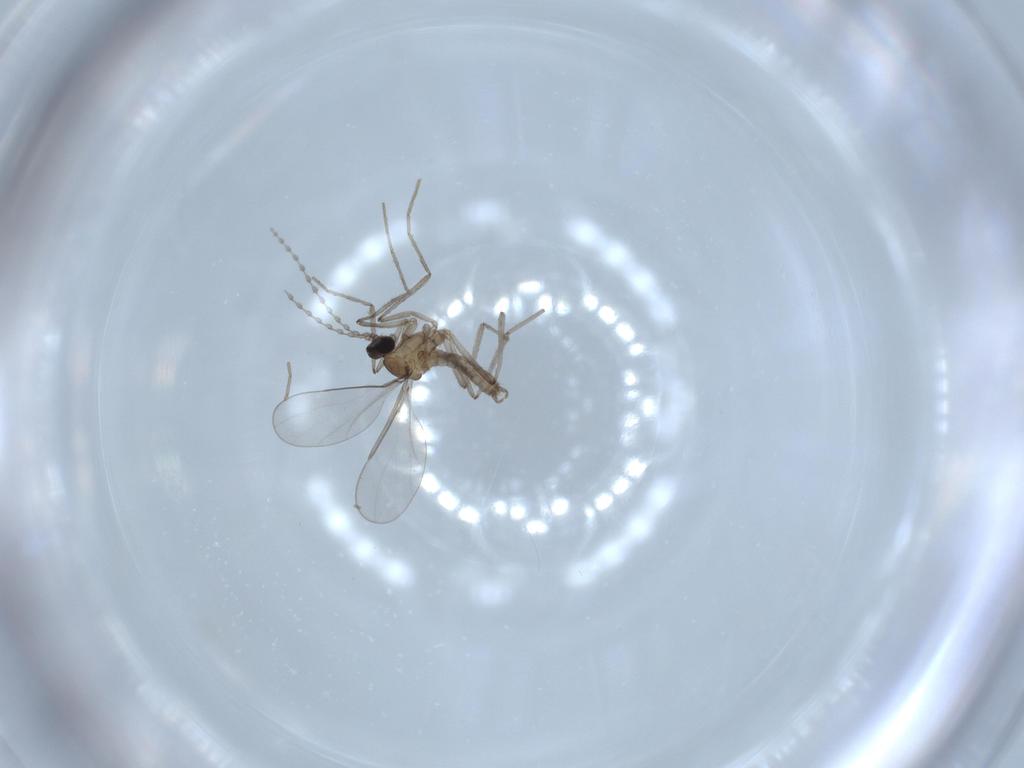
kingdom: Animalia
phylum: Arthropoda
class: Insecta
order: Diptera
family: Cecidomyiidae
